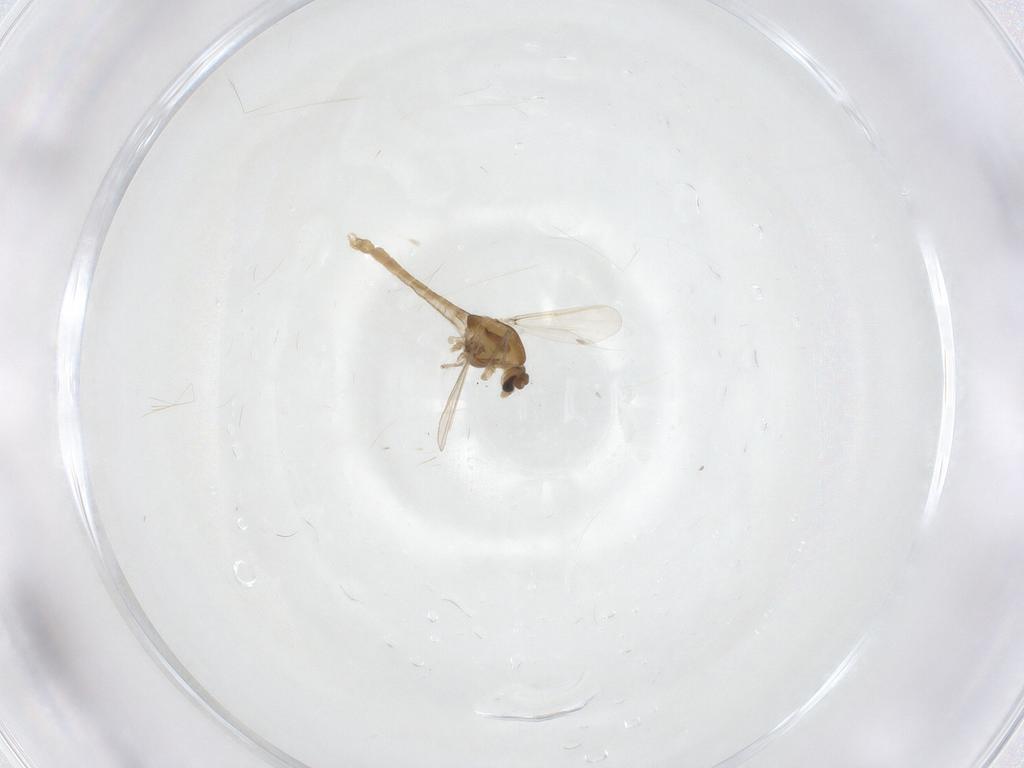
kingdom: Animalia
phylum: Arthropoda
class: Insecta
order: Diptera
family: Chironomidae
